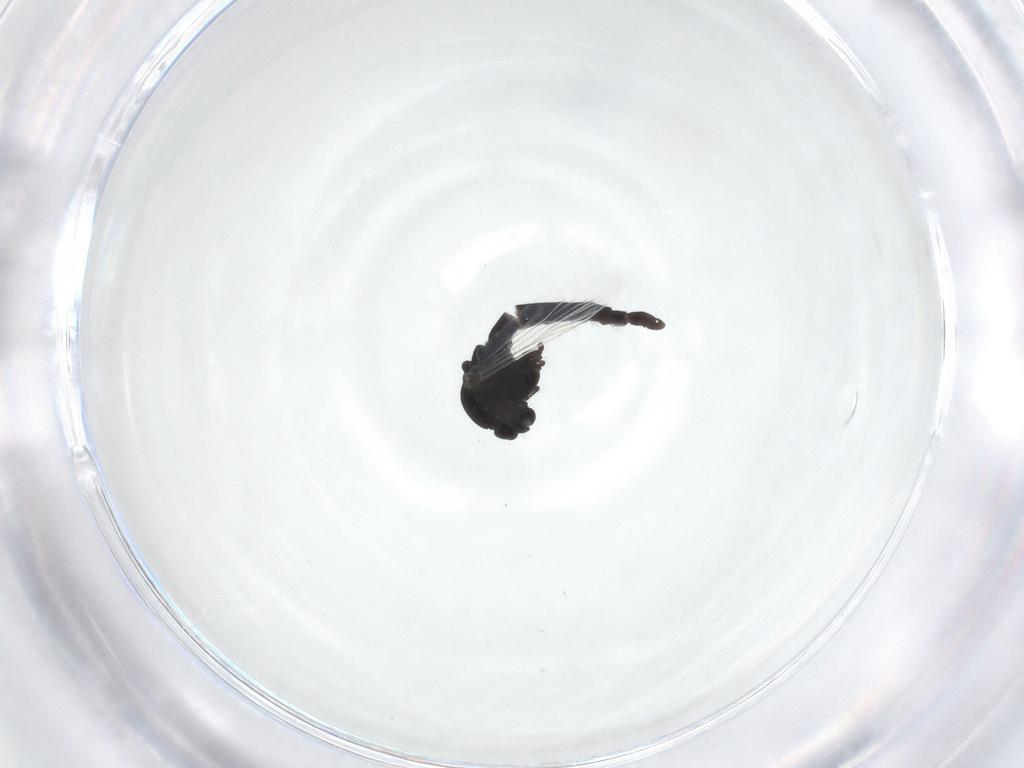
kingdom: Animalia
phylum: Arthropoda
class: Insecta
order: Diptera
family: Chironomidae
